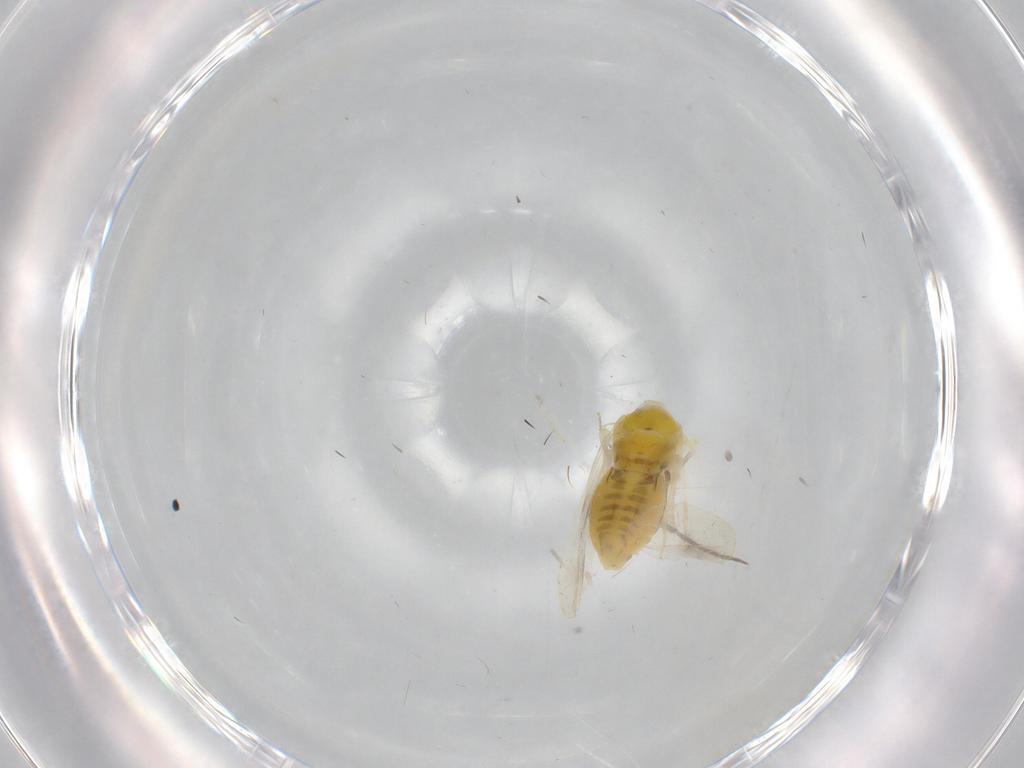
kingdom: Animalia
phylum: Arthropoda
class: Insecta
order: Hemiptera
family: Aleyrodidae
